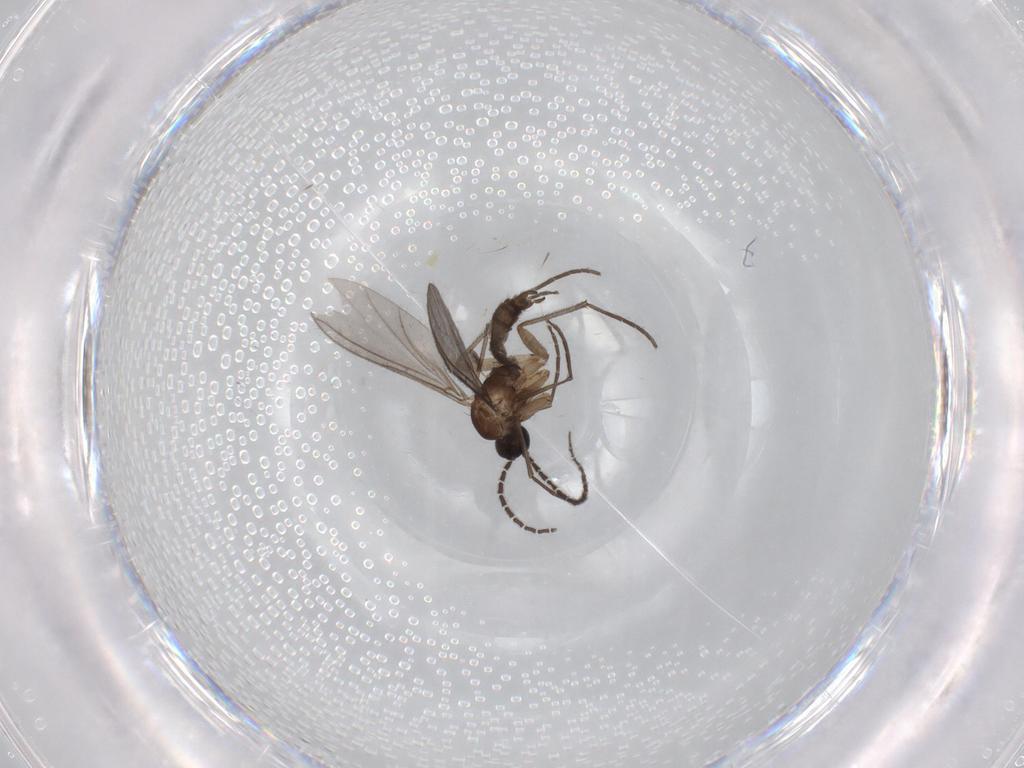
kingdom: Animalia
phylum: Arthropoda
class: Insecta
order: Diptera
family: Sciaridae
